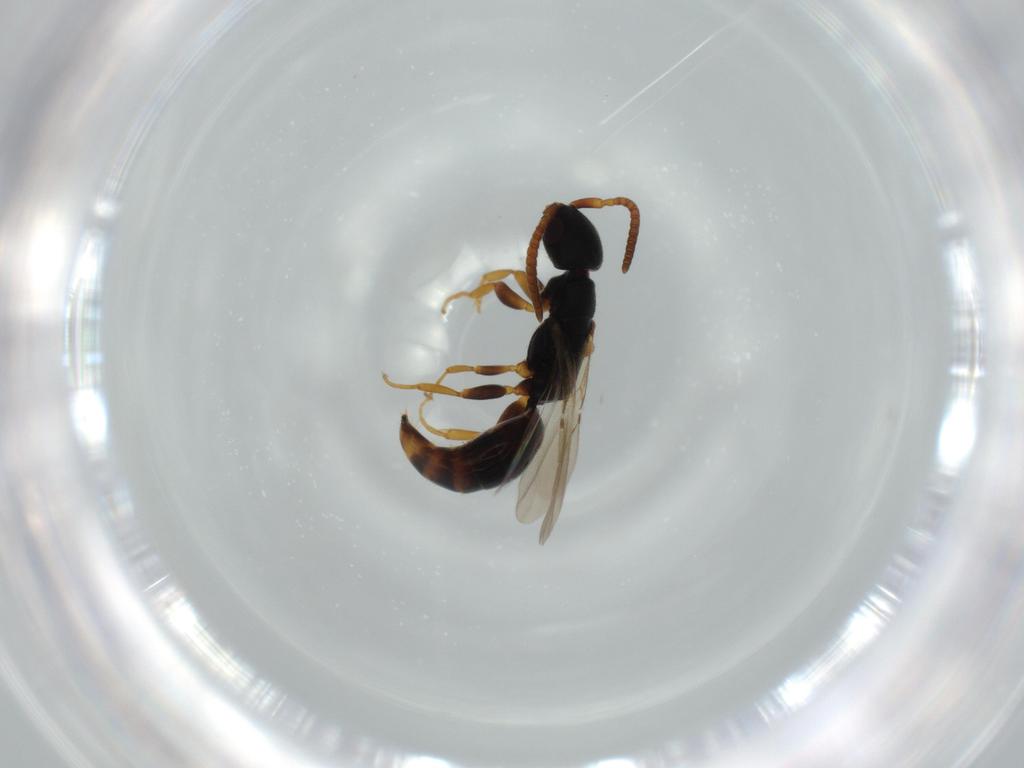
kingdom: Animalia
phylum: Arthropoda
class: Insecta
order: Hymenoptera
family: Bethylidae
